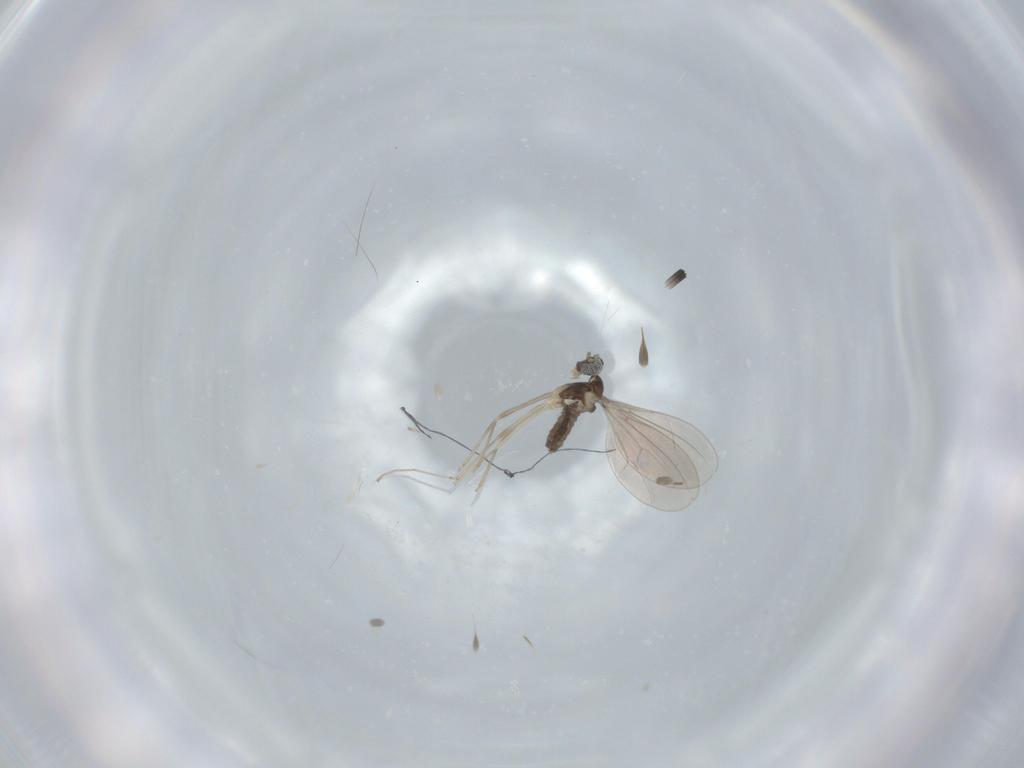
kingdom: Animalia
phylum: Arthropoda
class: Insecta
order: Diptera
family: Cecidomyiidae
